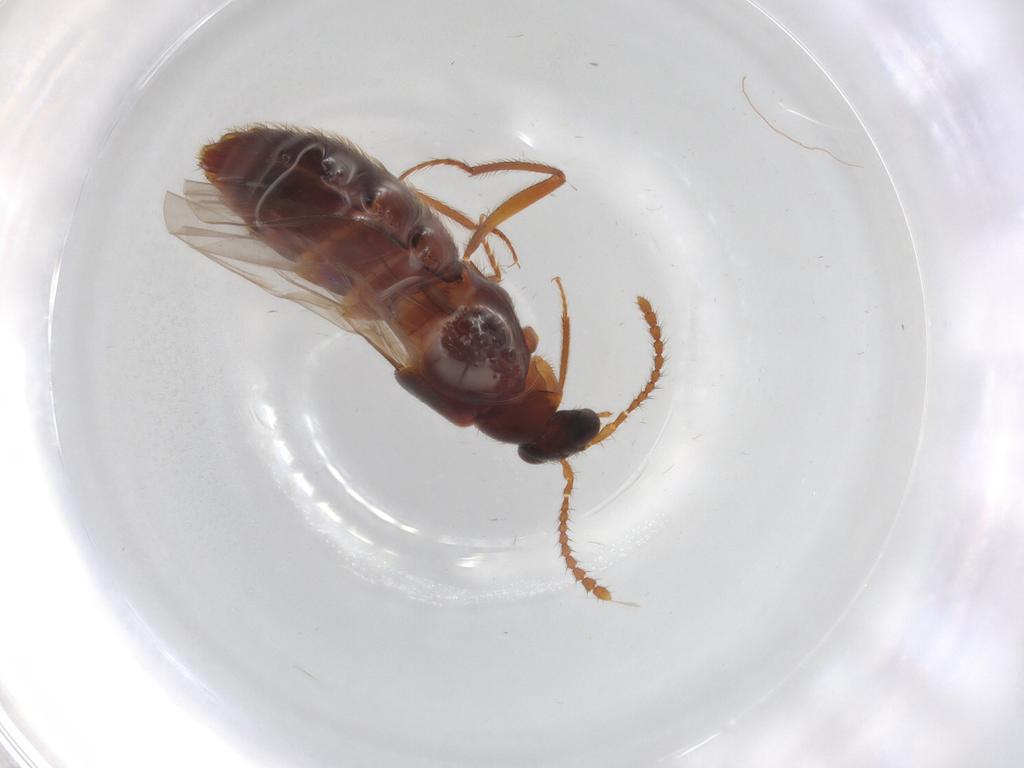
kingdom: Animalia
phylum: Arthropoda
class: Insecta
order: Coleoptera
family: Staphylinidae
